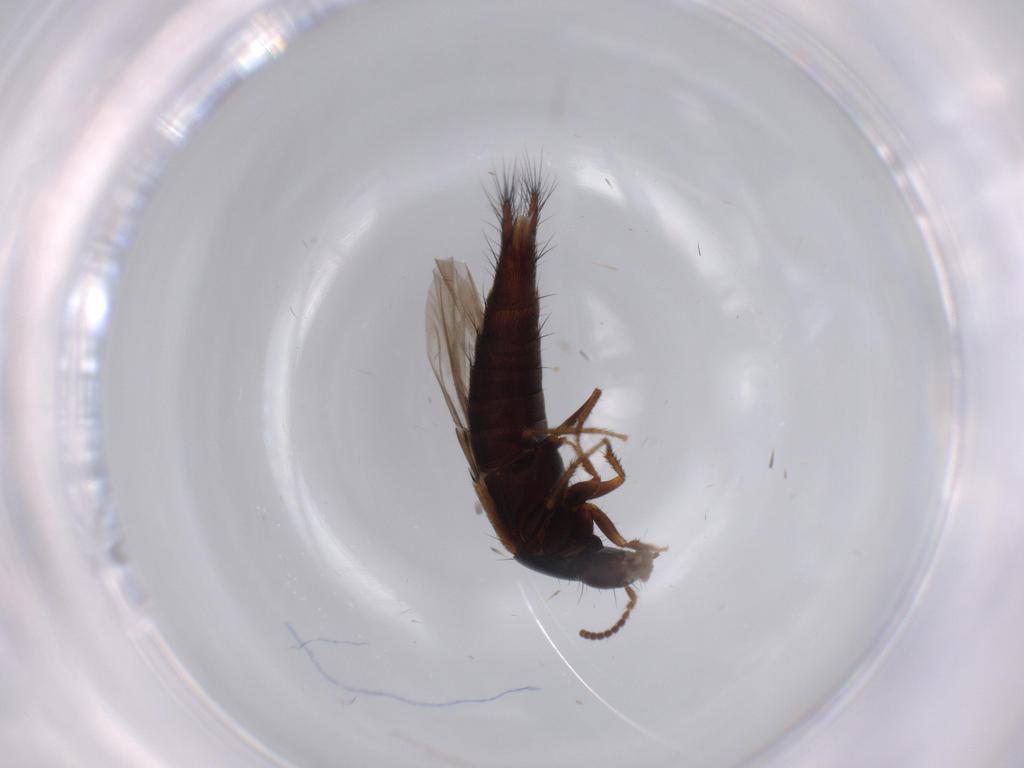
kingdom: Animalia
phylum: Arthropoda
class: Insecta
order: Coleoptera
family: Staphylinidae
